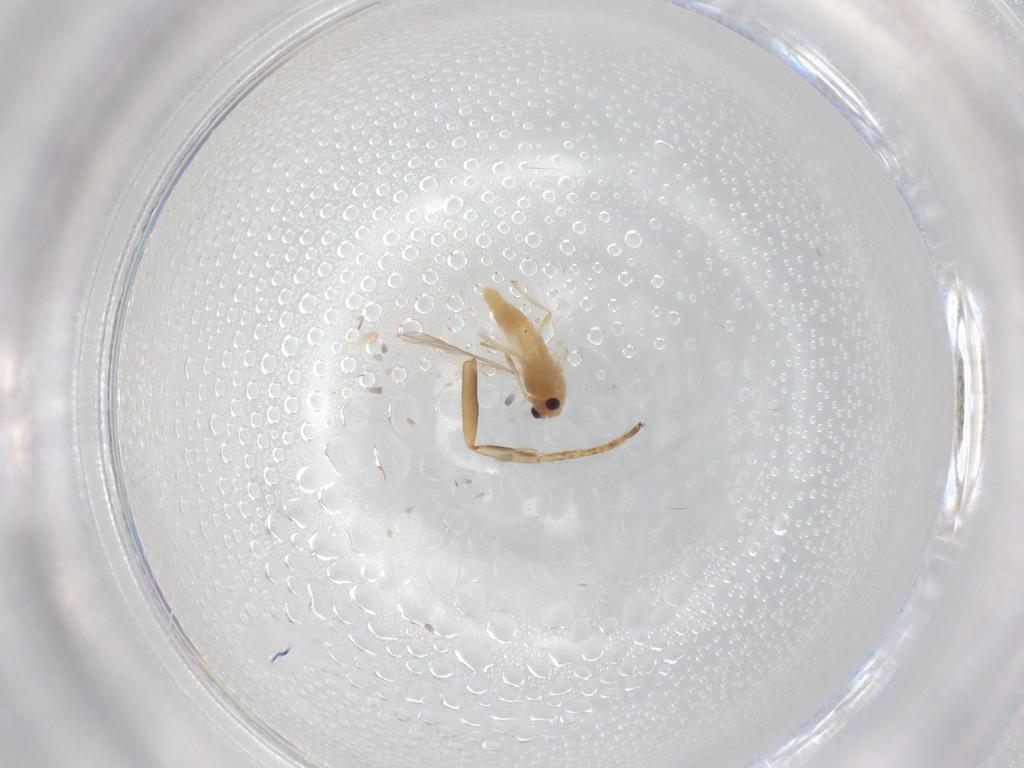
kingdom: Animalia
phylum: Arthropoda
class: Insecta
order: Diptera
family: Chironomidae
